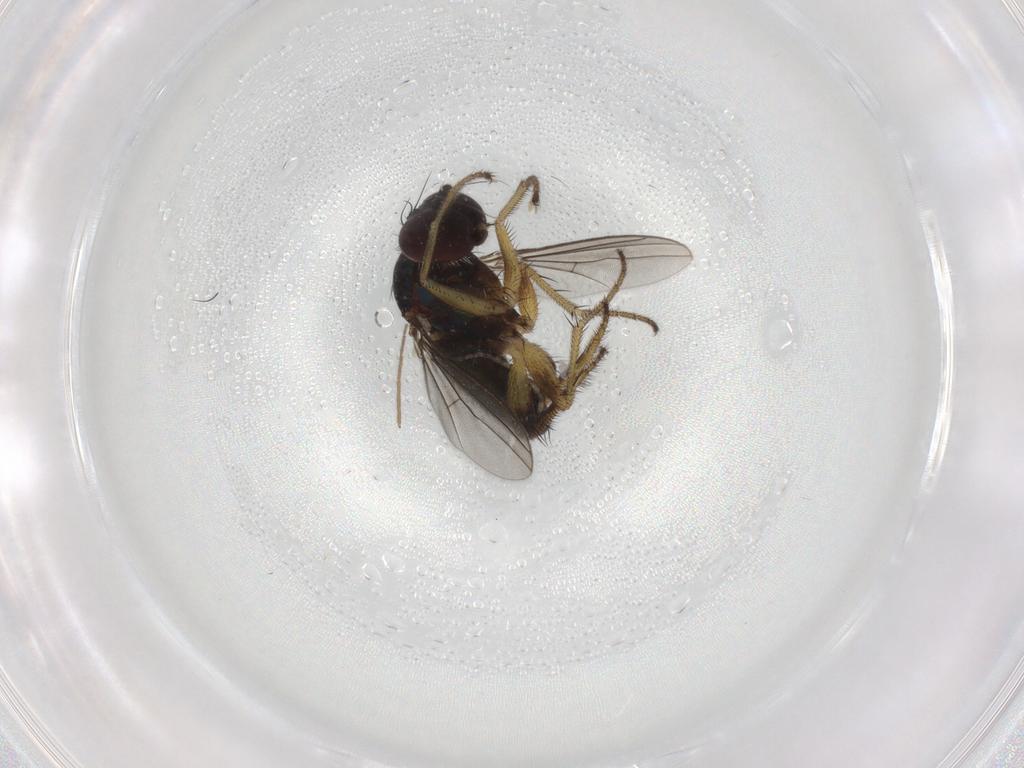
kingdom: Animalia
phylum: Arthropoda
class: Insecta
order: Diptera
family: Dolichopodidae
